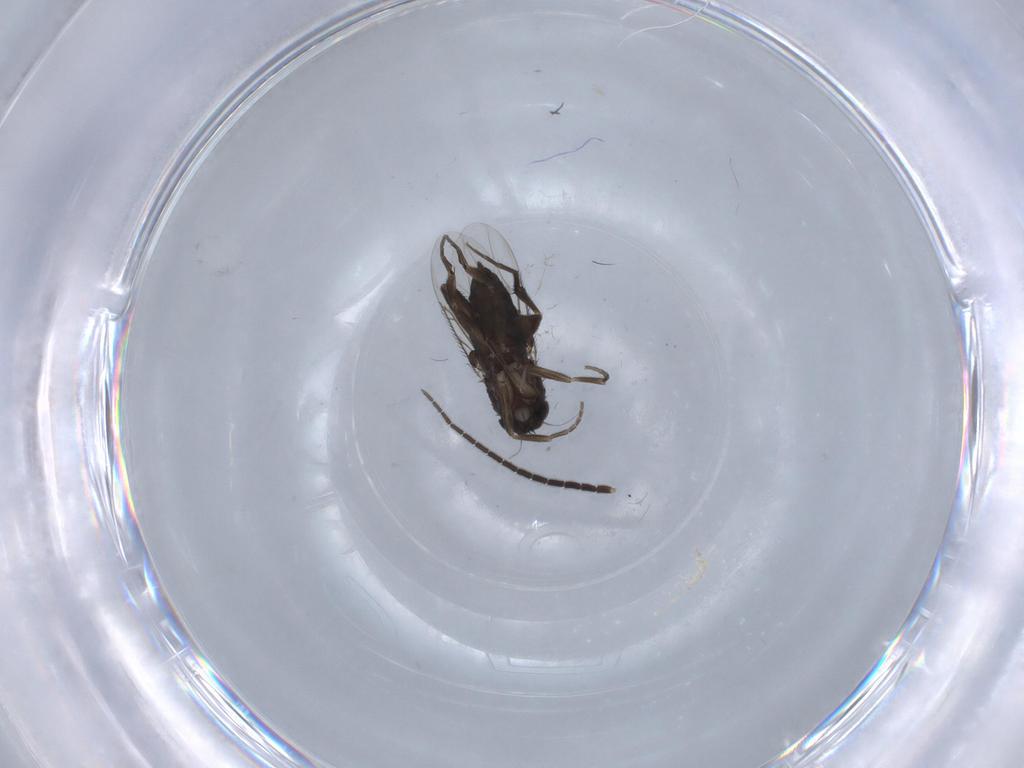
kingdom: Animalia
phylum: Arthropoda
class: Insecta
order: Diptera
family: Phoridae
